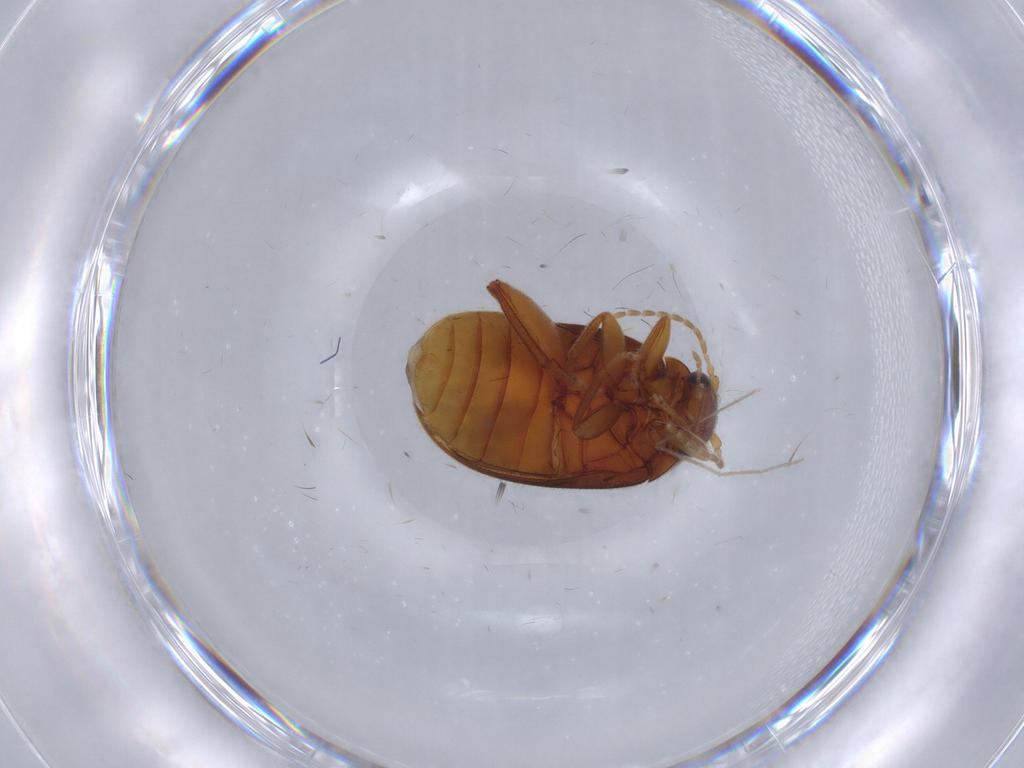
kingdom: Animalia
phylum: Arthropoda
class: Insecta
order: Coleoptera
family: Scirtidae
